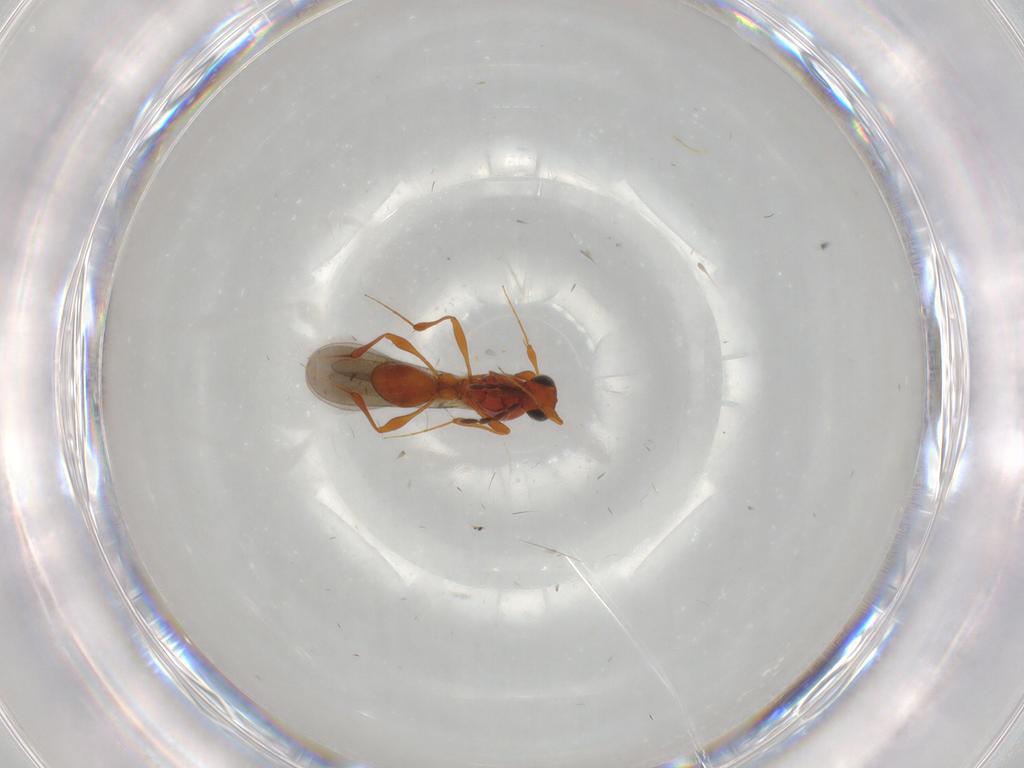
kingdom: Animalia
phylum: Arthropoda
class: Insecta
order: Hymenoptera
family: Platygastridae
